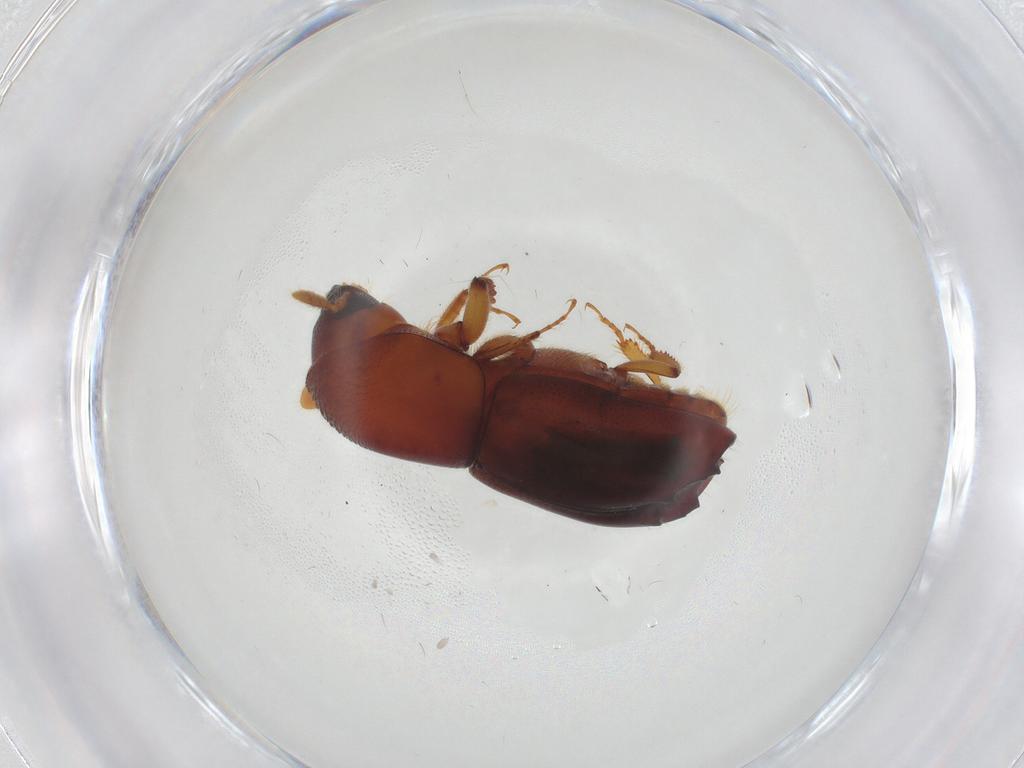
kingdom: Animalia
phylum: Arthropoda
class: Insecta
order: Coleoptera
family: Curculionidae
